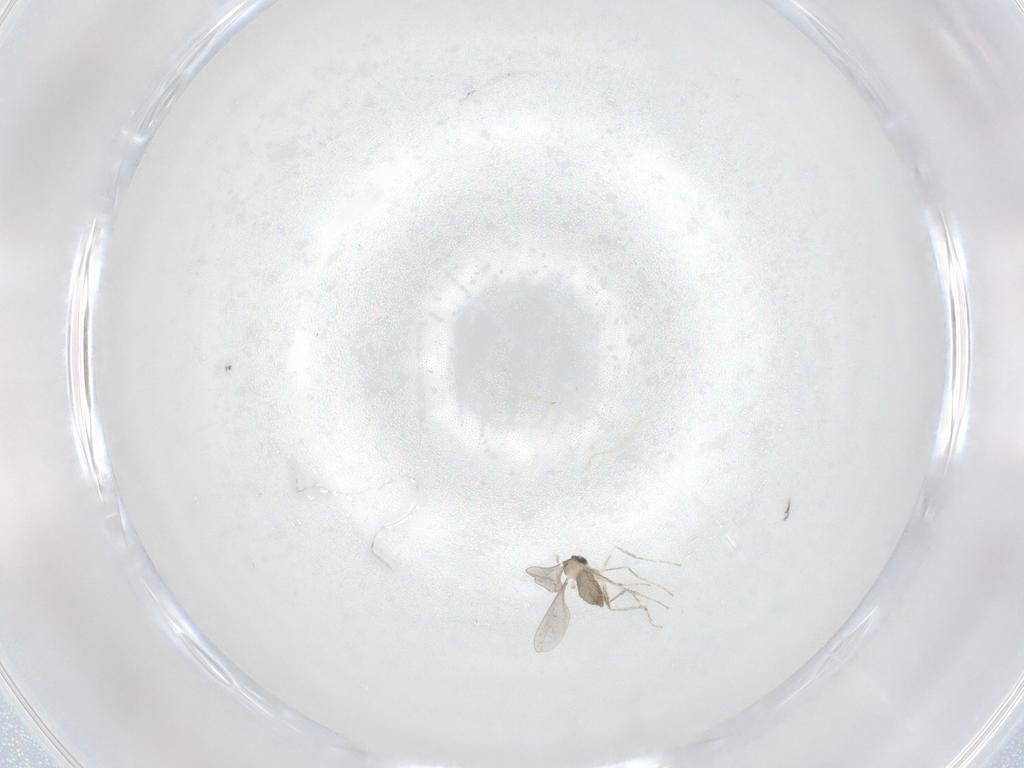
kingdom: Animalia
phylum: Arthropoda
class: Insecta
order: Diptera
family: Cecidomyiidae
